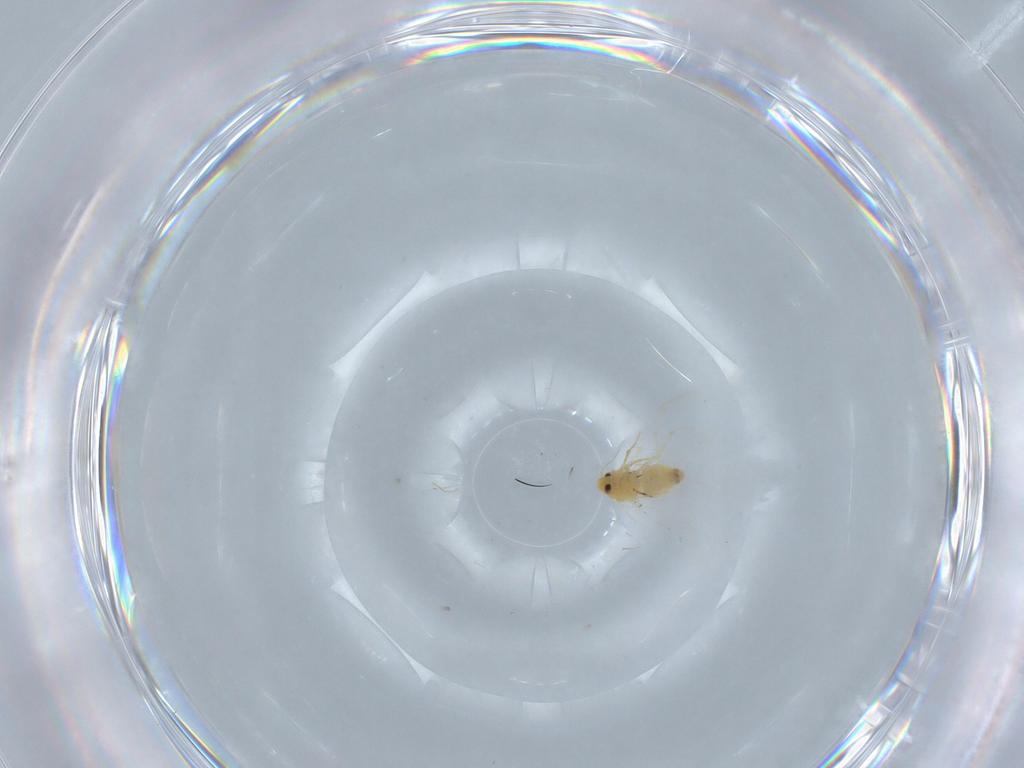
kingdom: Animalia
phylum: Arthropoda
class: Insecta
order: Hemiptera
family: Aleyrodidae
